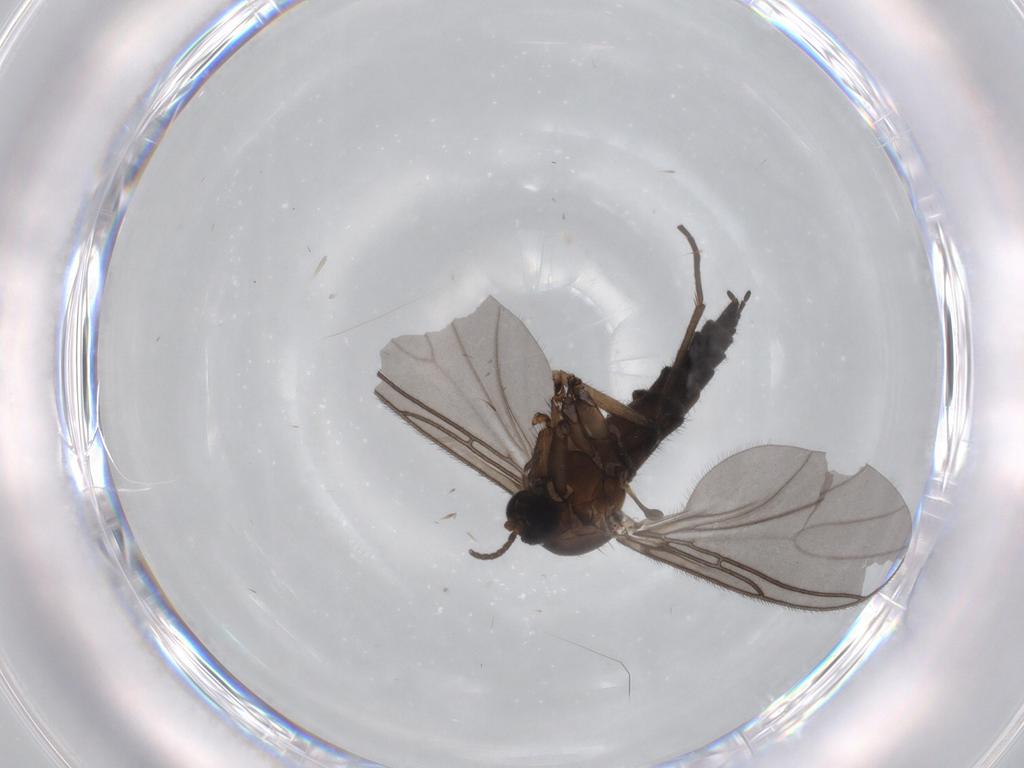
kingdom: Animalia
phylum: Arthropoda
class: Insecta
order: Diptera
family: Sciaridae
